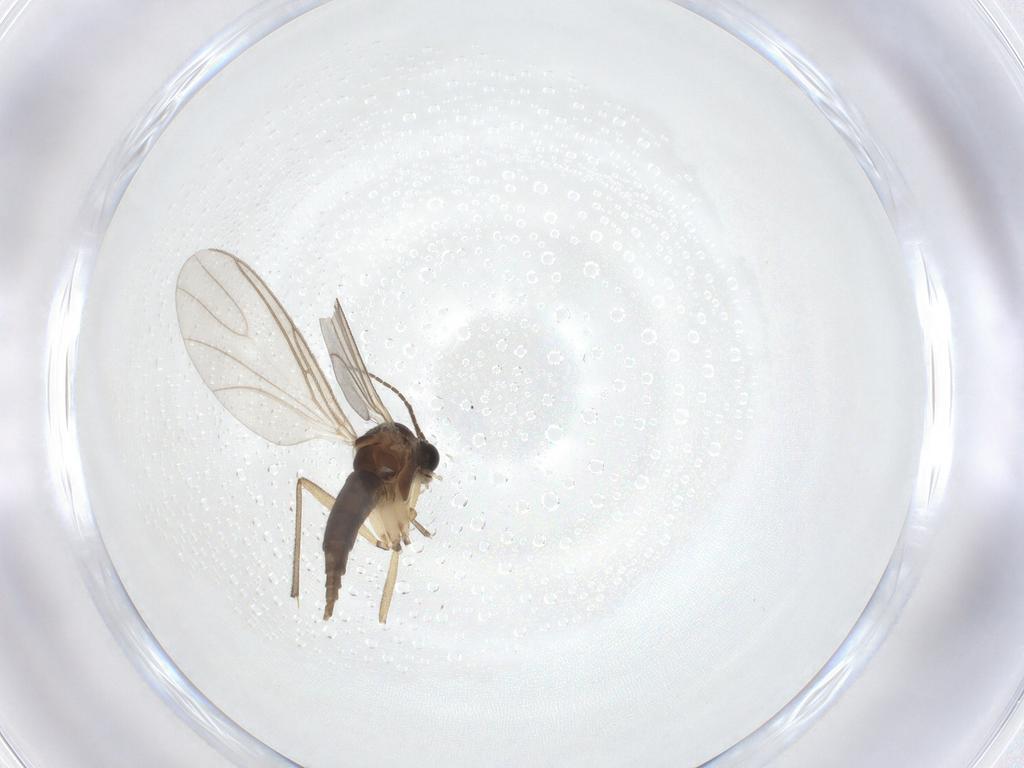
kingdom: Animalia
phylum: Arthropoda
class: Insecta
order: Diptera
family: Sciaridae
